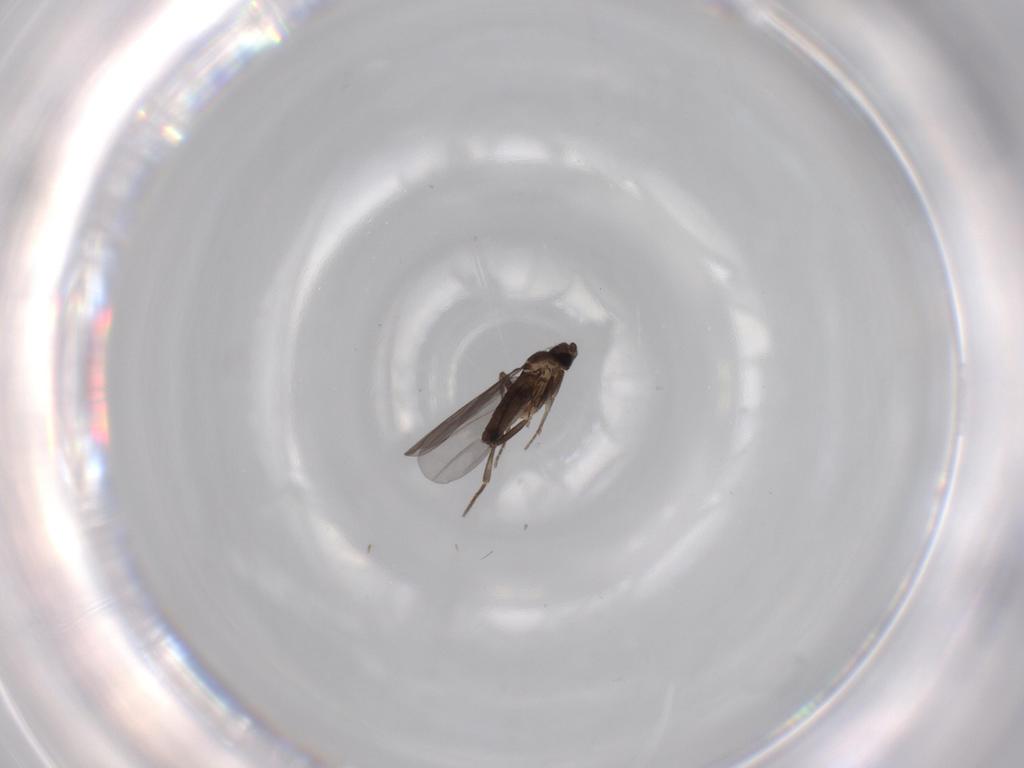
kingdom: Animalia
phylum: Arthropoda
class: Insecta
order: Diptera
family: Phoridae
